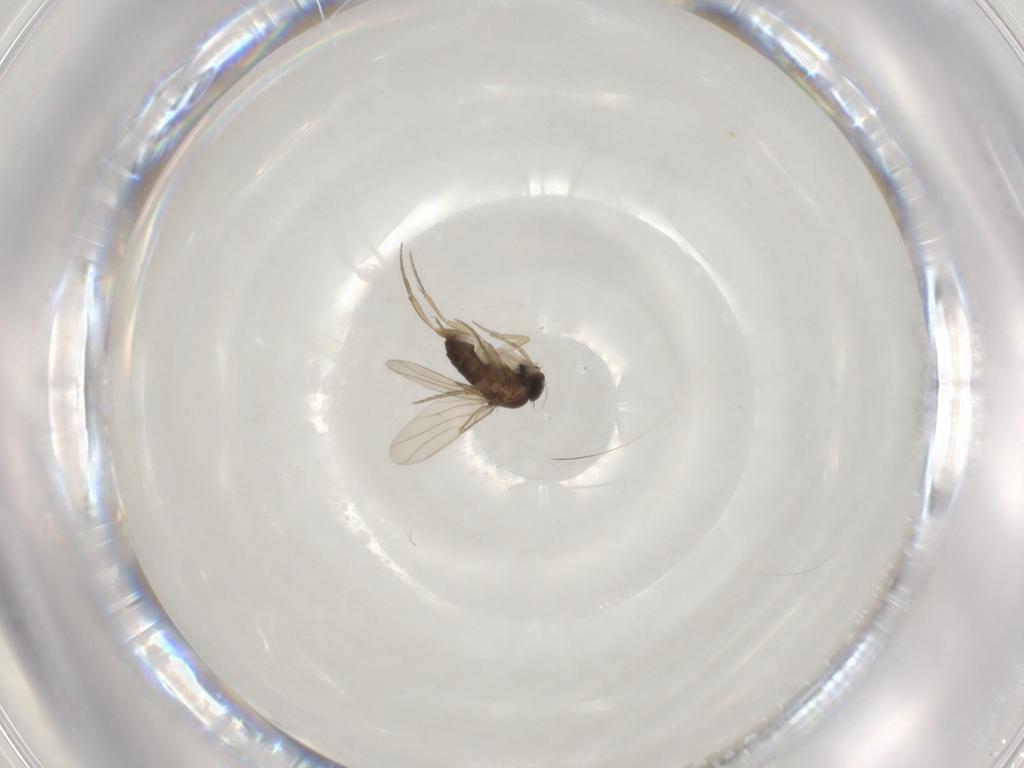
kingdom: Animalia
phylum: Arthropoda
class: Insecta
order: Diptera
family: Phoridae
